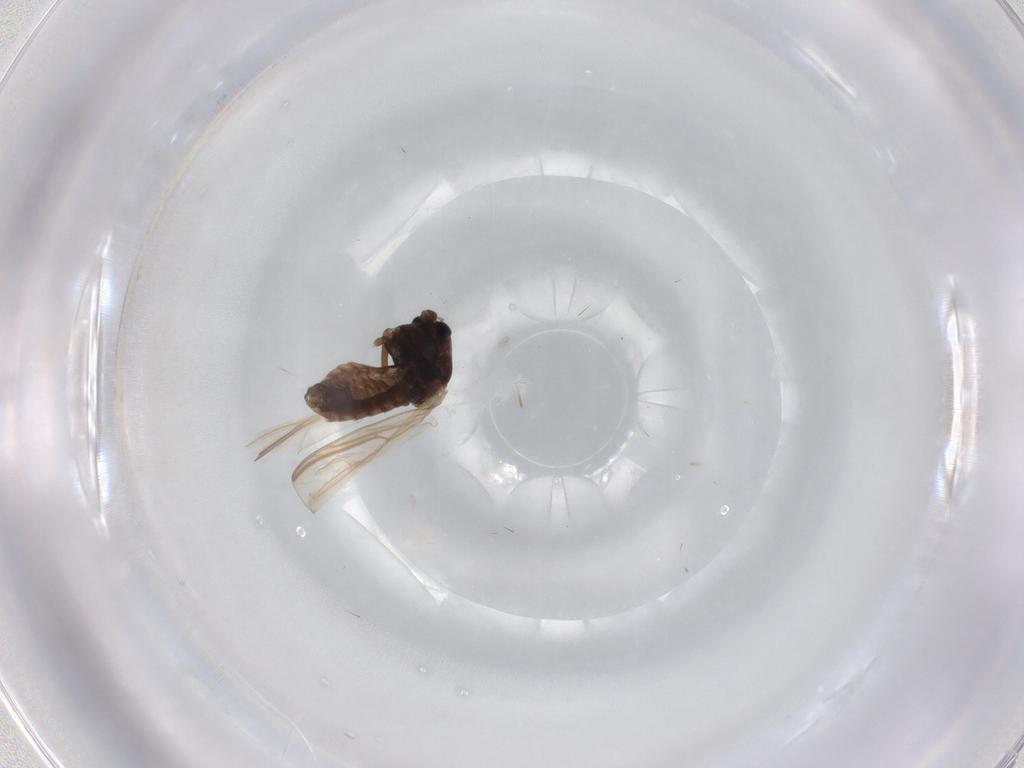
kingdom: Animalia
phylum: Arthropoda
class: Insecta
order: Diptera
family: Chironomidae
